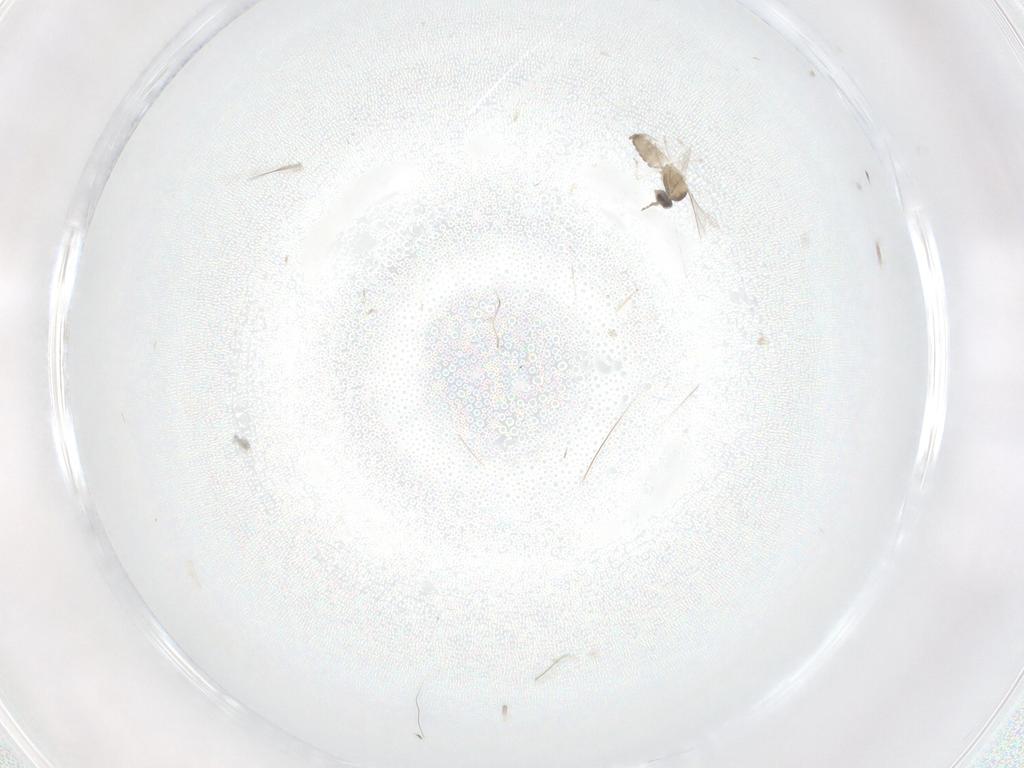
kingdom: Animalia
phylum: Arthropoda
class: Insecta
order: Diptera
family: Cecidomyiidae
